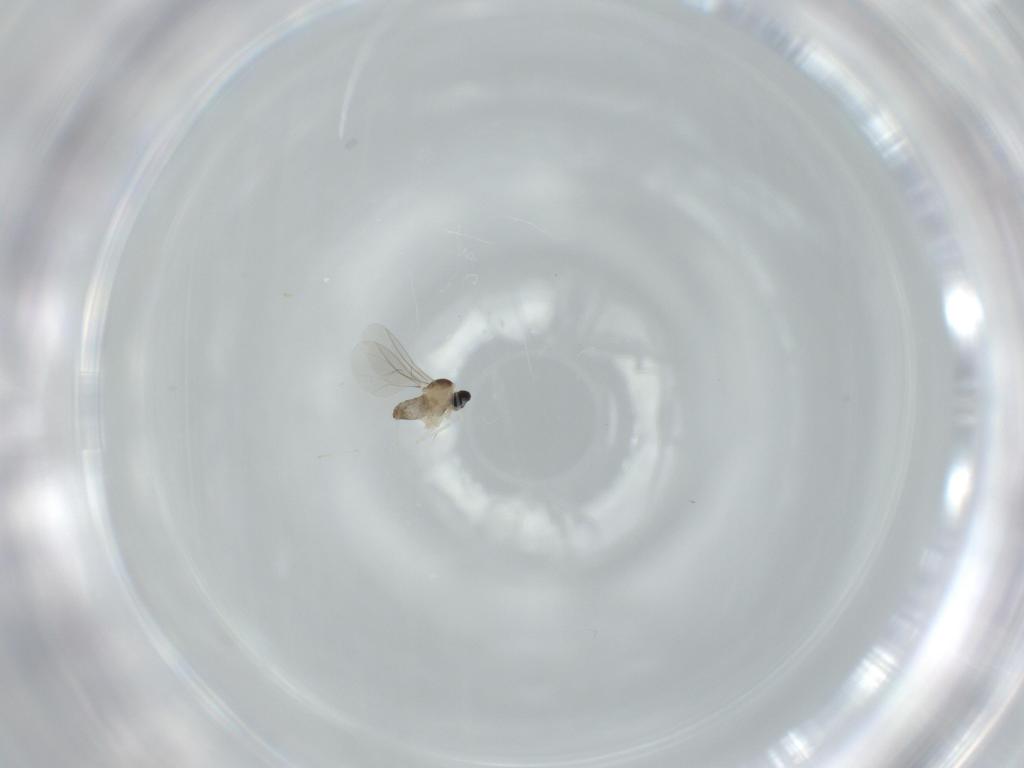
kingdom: Animalia
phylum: Arthropoda
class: Insecta
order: Diptera
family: Cecidomyiidae
